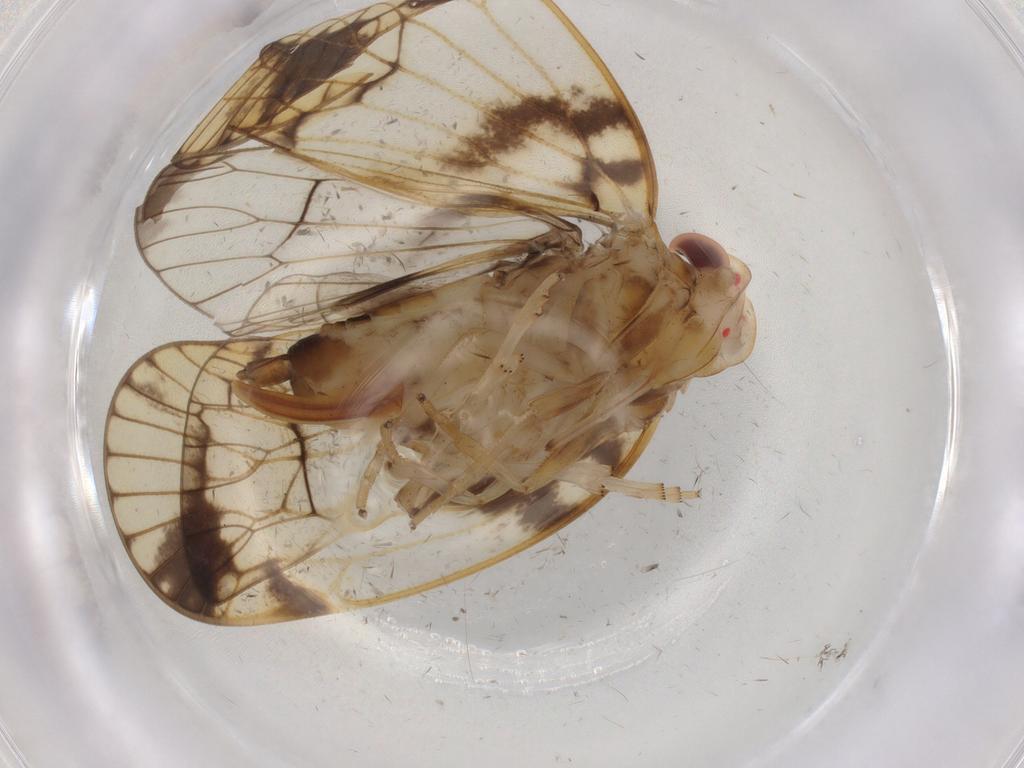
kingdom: Animalia
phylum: Arthropoda
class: Insecta
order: Hemiptera
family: Cixiidae
